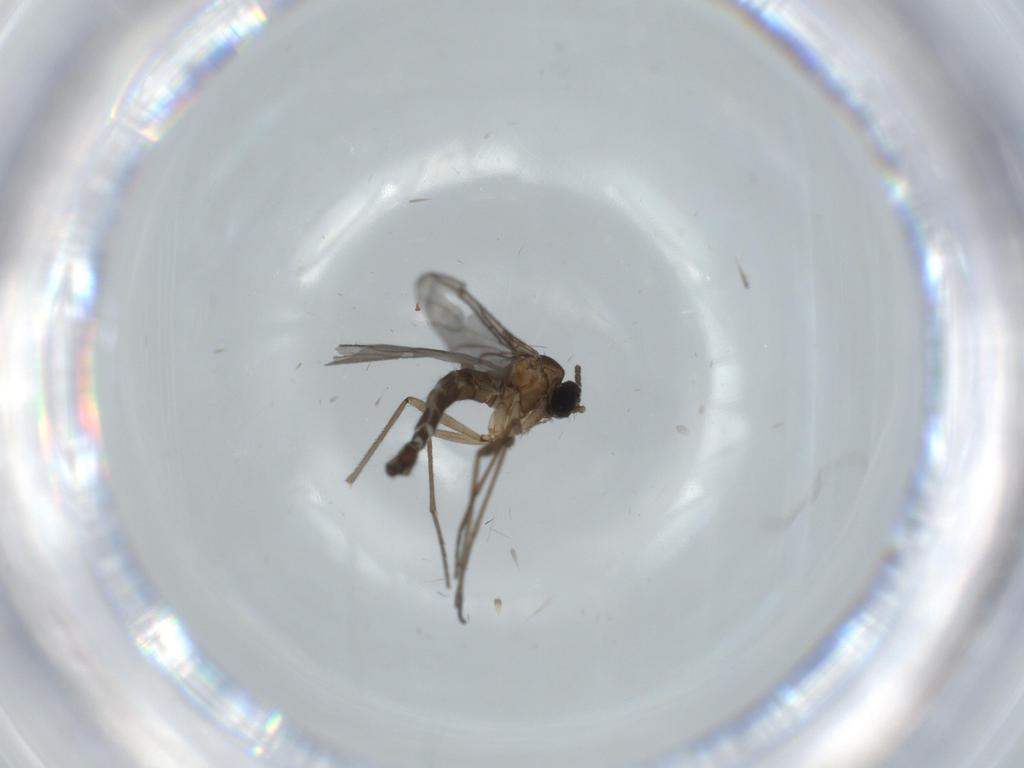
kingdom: Animalia
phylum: Arthropoda
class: Insecta
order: Diptera
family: Sciaridae
